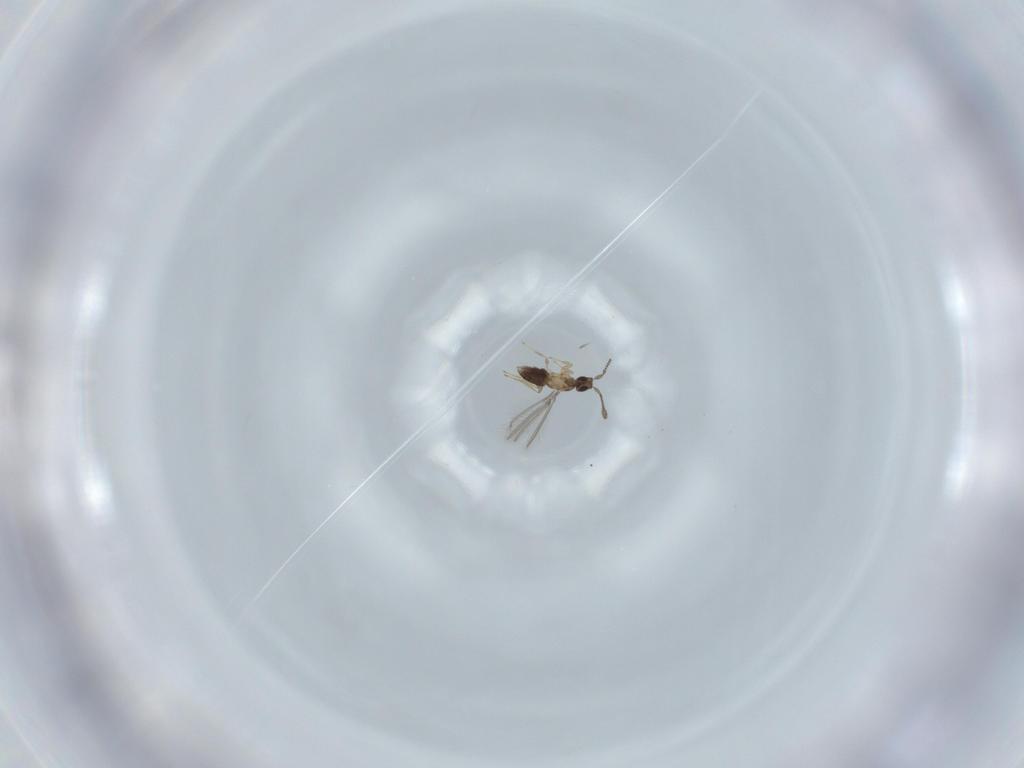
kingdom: Animalia
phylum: Arthropoda
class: Insecta
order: Hymenoptera
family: Mymaridae
